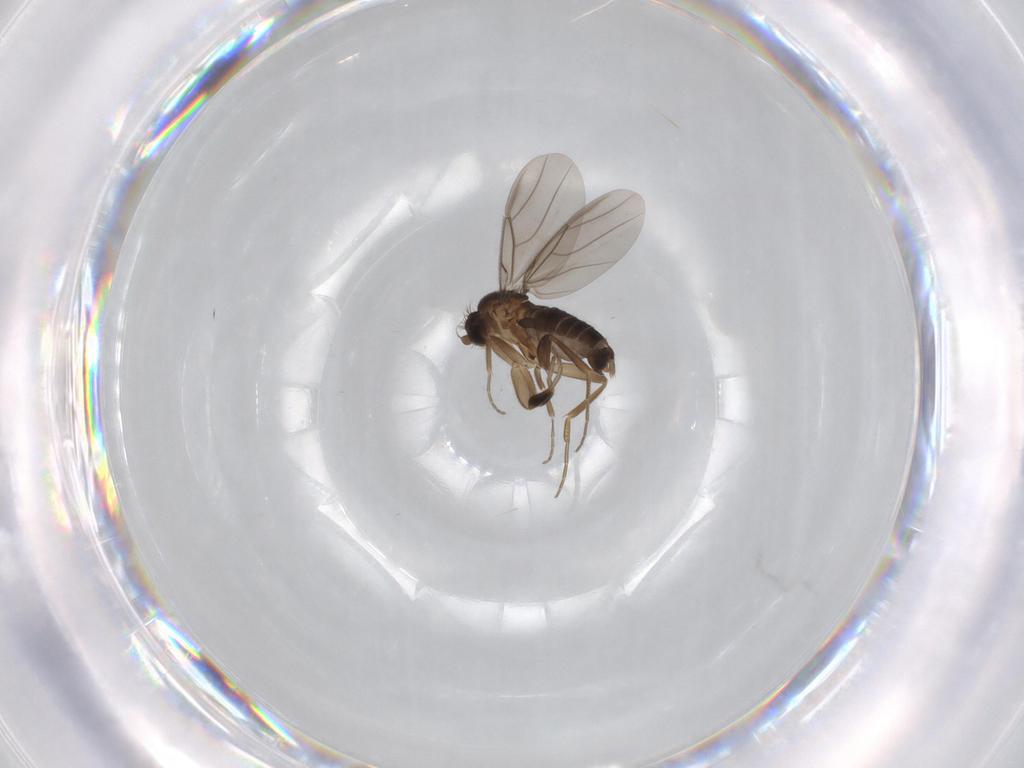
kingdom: Animalia
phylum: Arthropoda
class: Insecta
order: Diptera
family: Phoridae
